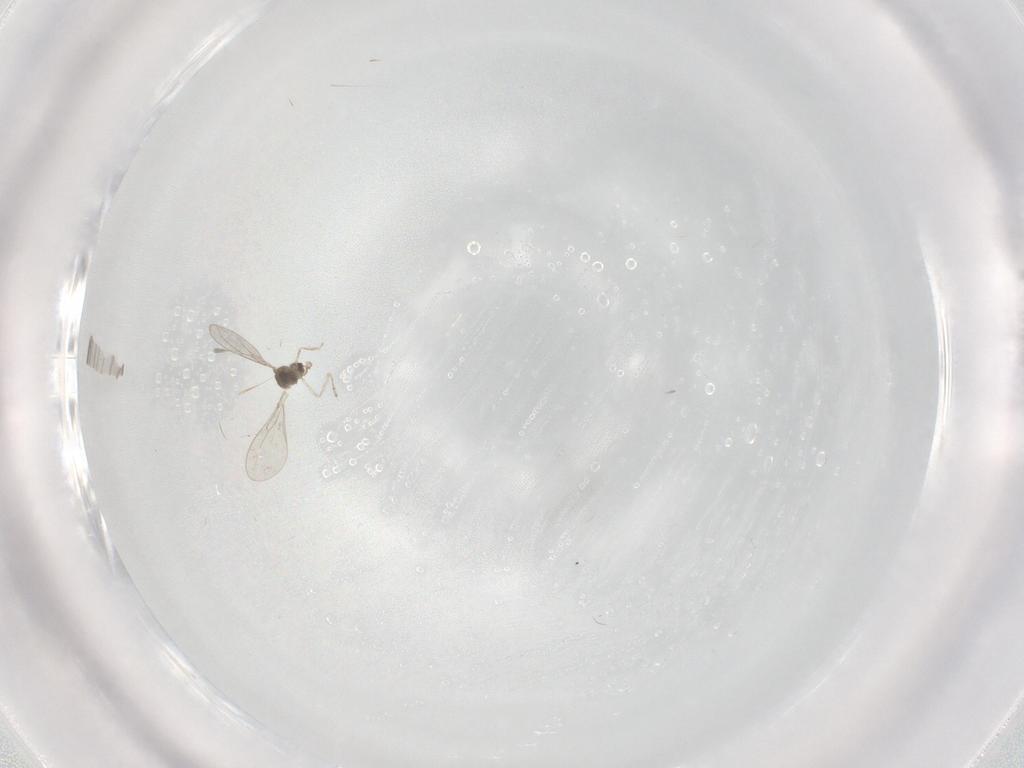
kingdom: Animalia
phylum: Arthropoda
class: Insecta
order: Diptera
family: Cecidomyiidae
